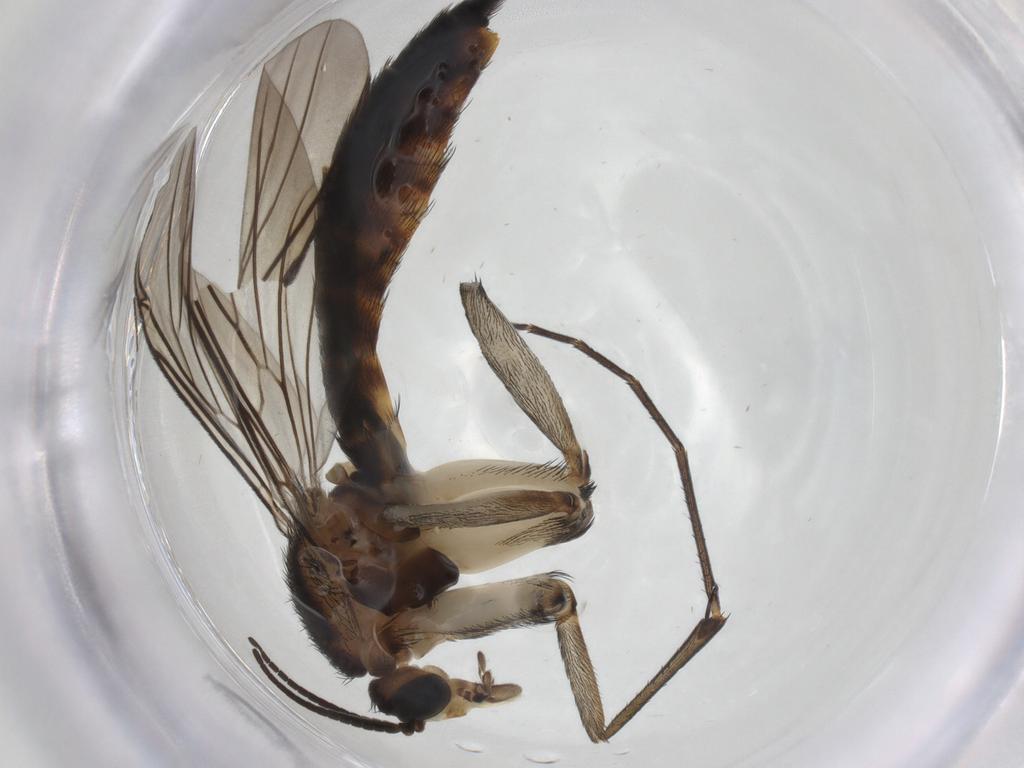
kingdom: Animalia
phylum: Arthropoda
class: Insecta
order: Diptera
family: Keroplatidae
